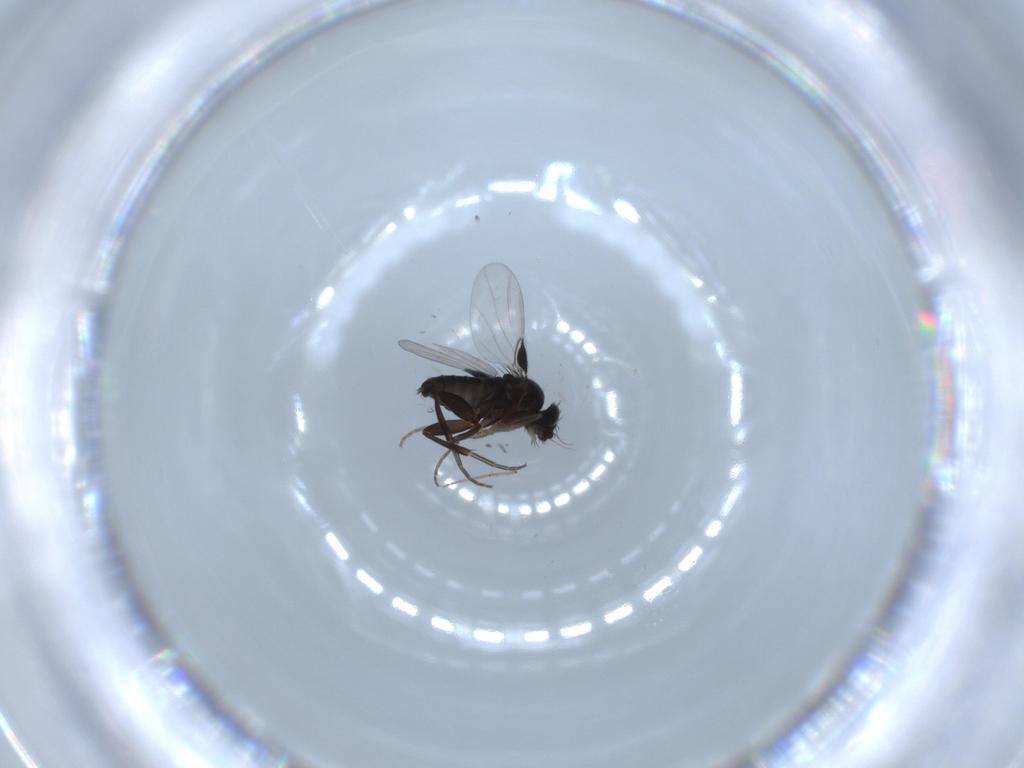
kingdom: Animalia
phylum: Arthropoda
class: Insecta
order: Diptera
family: Phoridae
